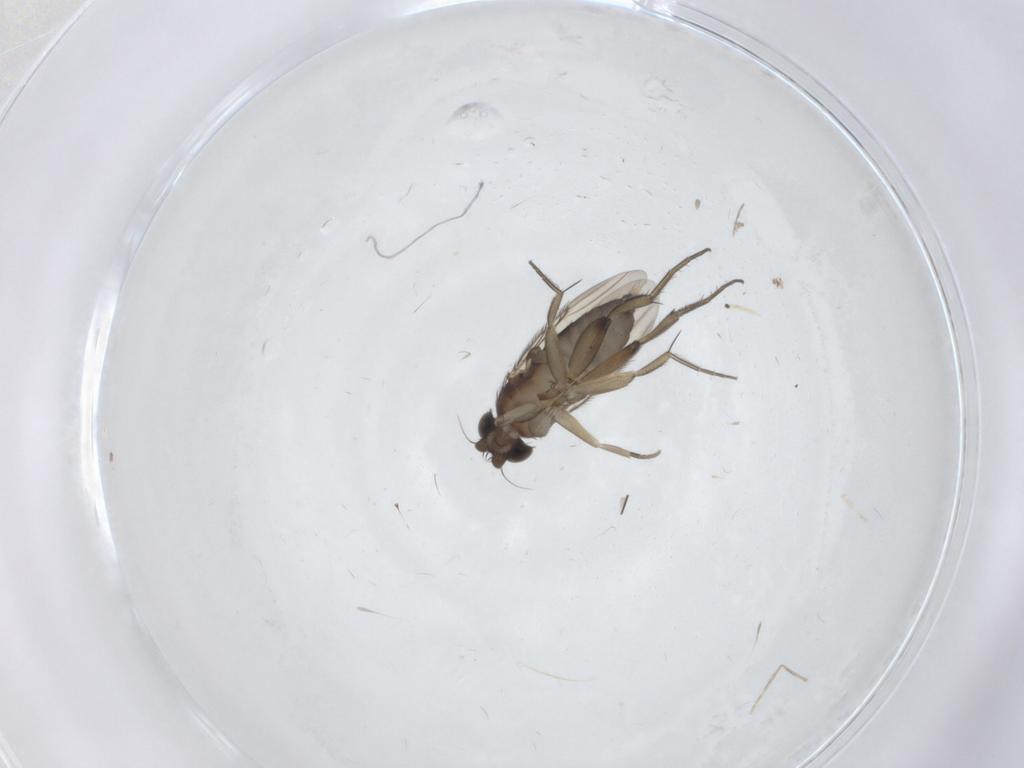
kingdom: Animalia
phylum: Arthropoda
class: Insecta
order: Diptera
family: Phoridae
